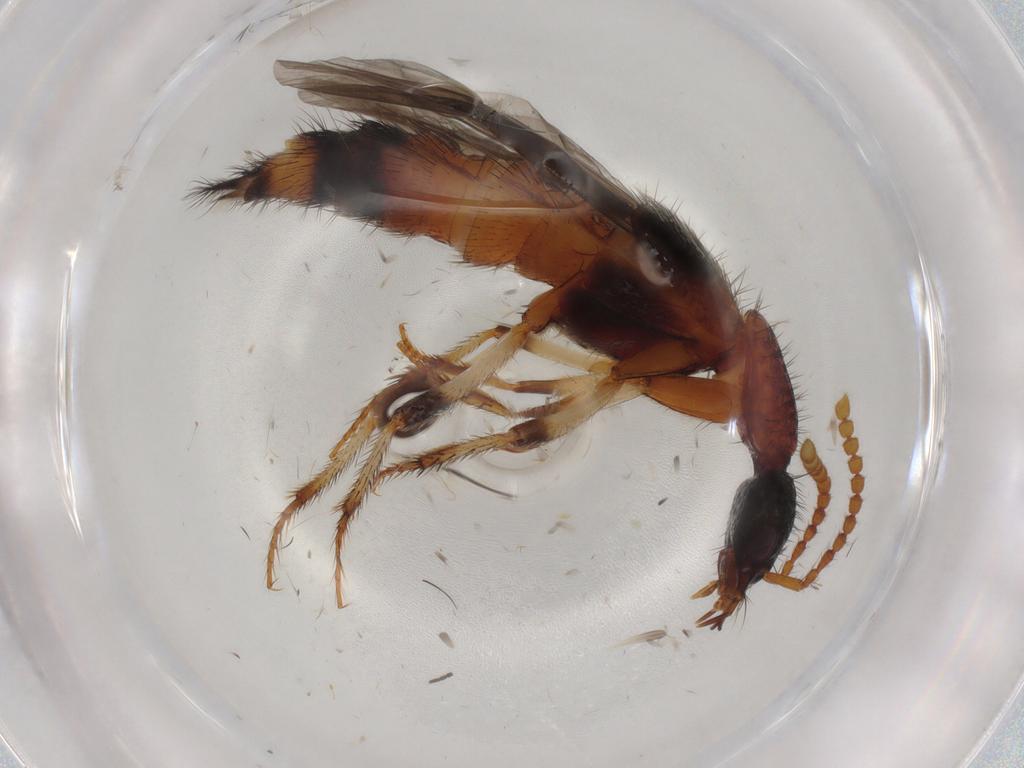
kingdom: Animalia
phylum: Arthropoda
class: Insecta
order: Coleoptera
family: Staphylinidae
